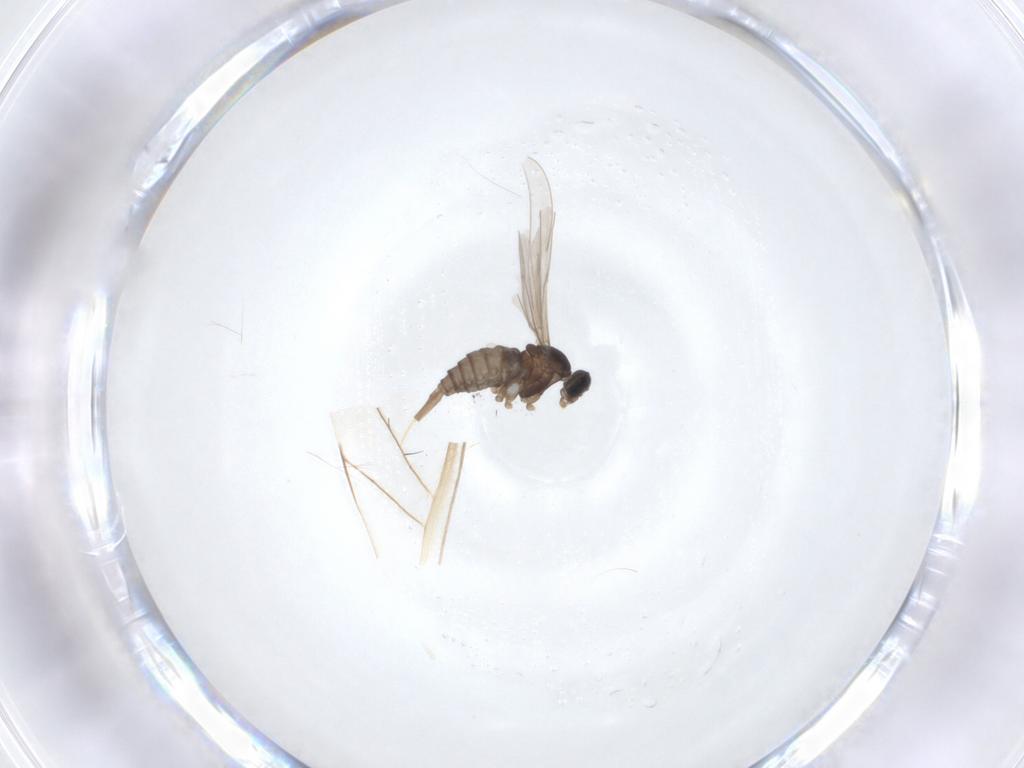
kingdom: Animalia
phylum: Arthropoda
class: Insecta
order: Diptera
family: Cecidomyiidae
